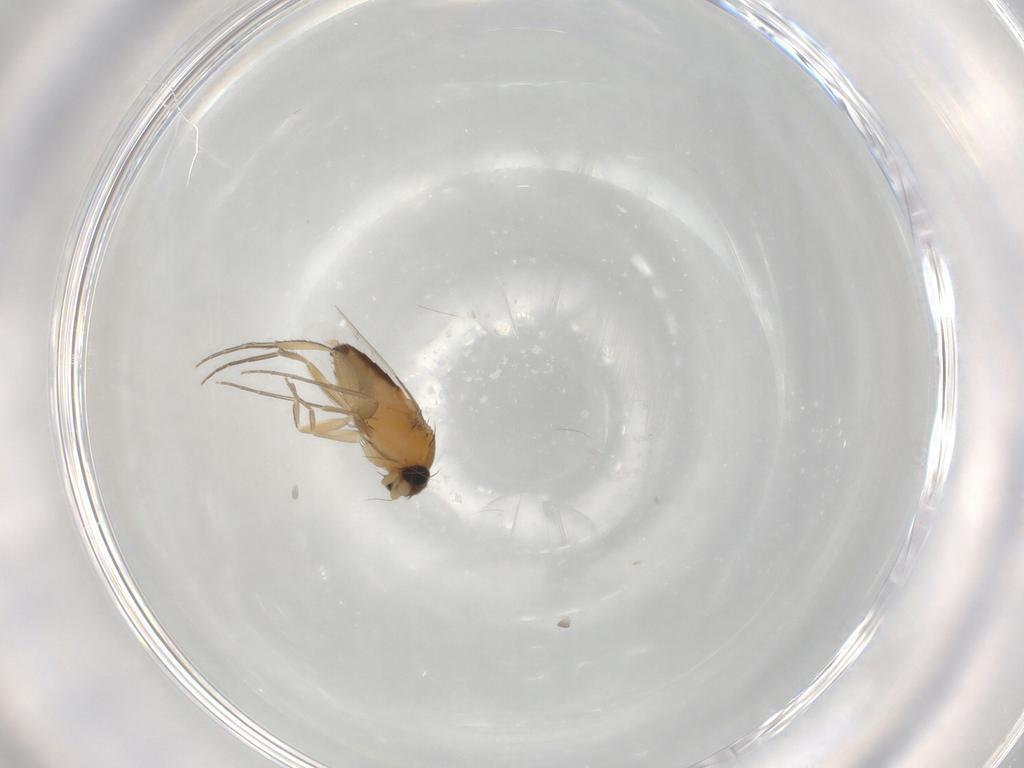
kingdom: Animalia
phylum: Arthropoda
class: Insecta
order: Diptera
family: Phoridae
